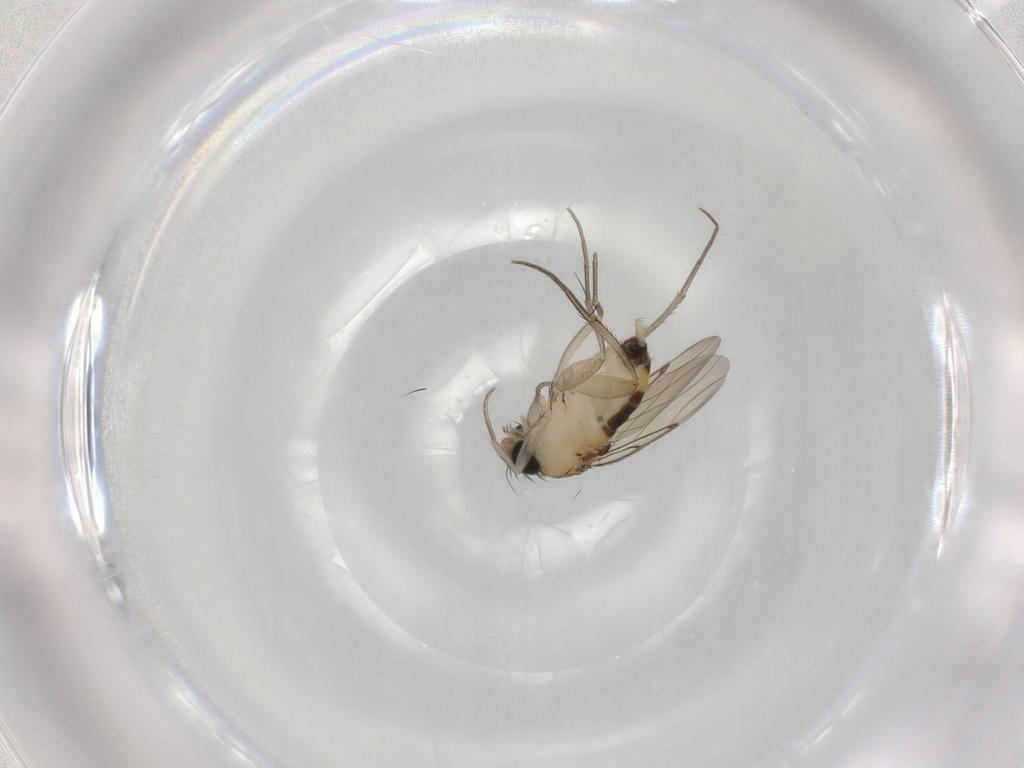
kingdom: Animalia
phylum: Arthropoda
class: Insecta
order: Diptera
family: Phoridae
